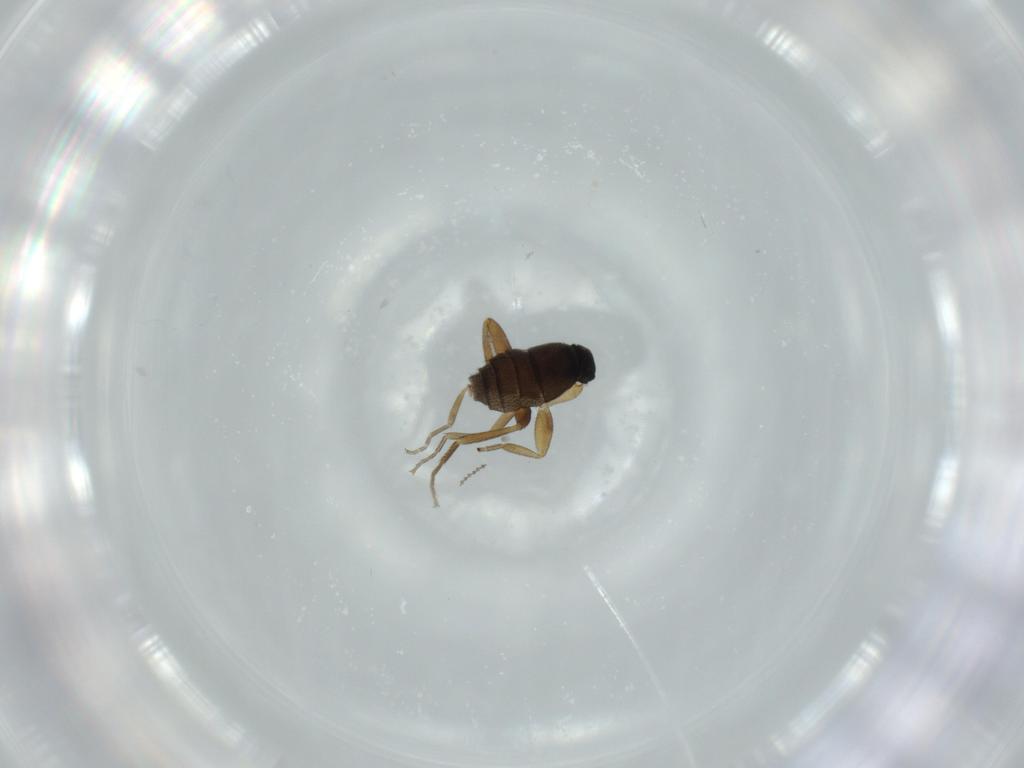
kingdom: Animalia
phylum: Arthropoda
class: Insecta
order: Diptera
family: Phoridae
